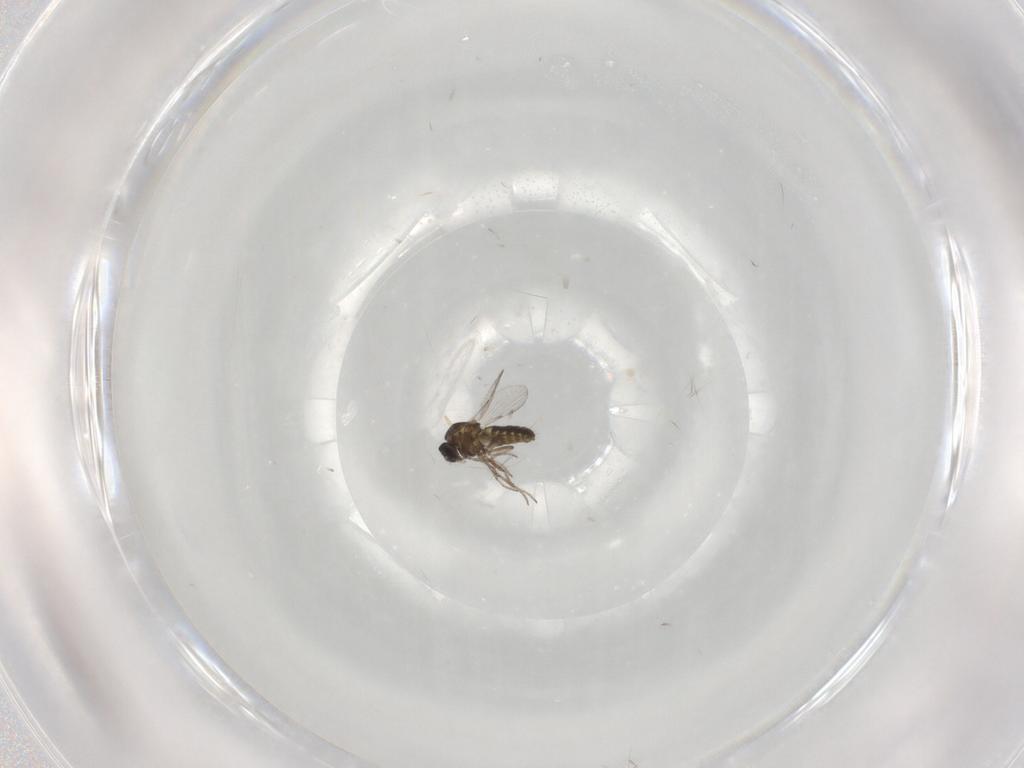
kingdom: Animalia
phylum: Arthropoda
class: Insecta
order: Diptera
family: Ceratopogonidae
